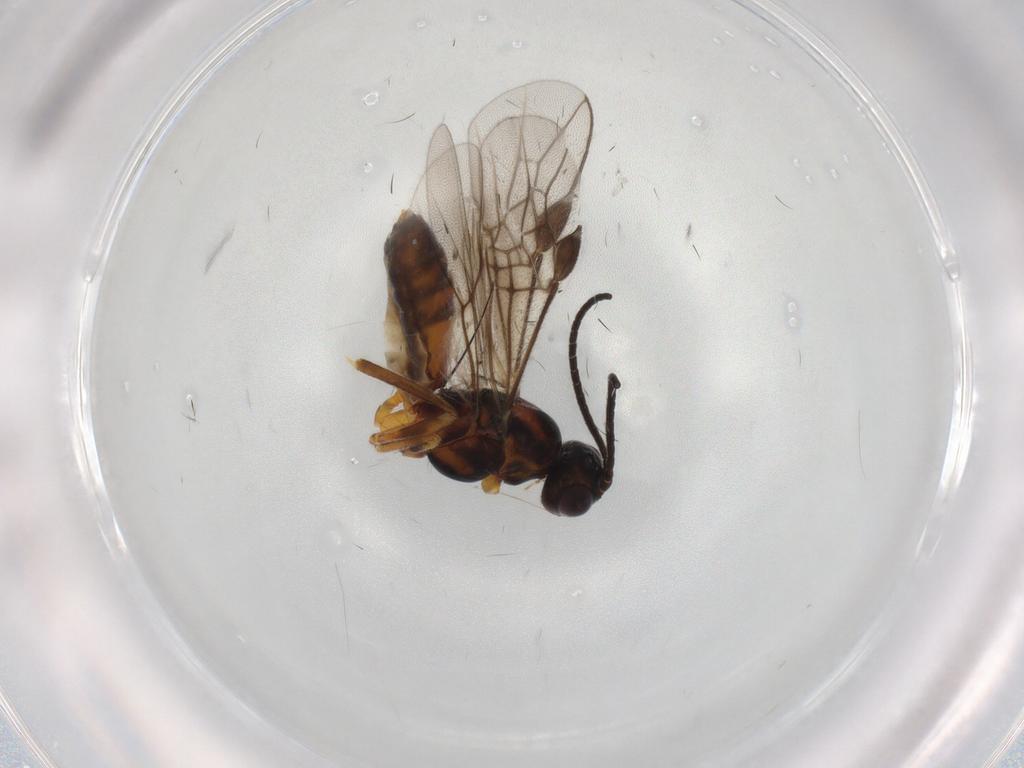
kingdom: Animalia
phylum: Arthropoda
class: Insecta
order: Hymenoptera
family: Braconidae
